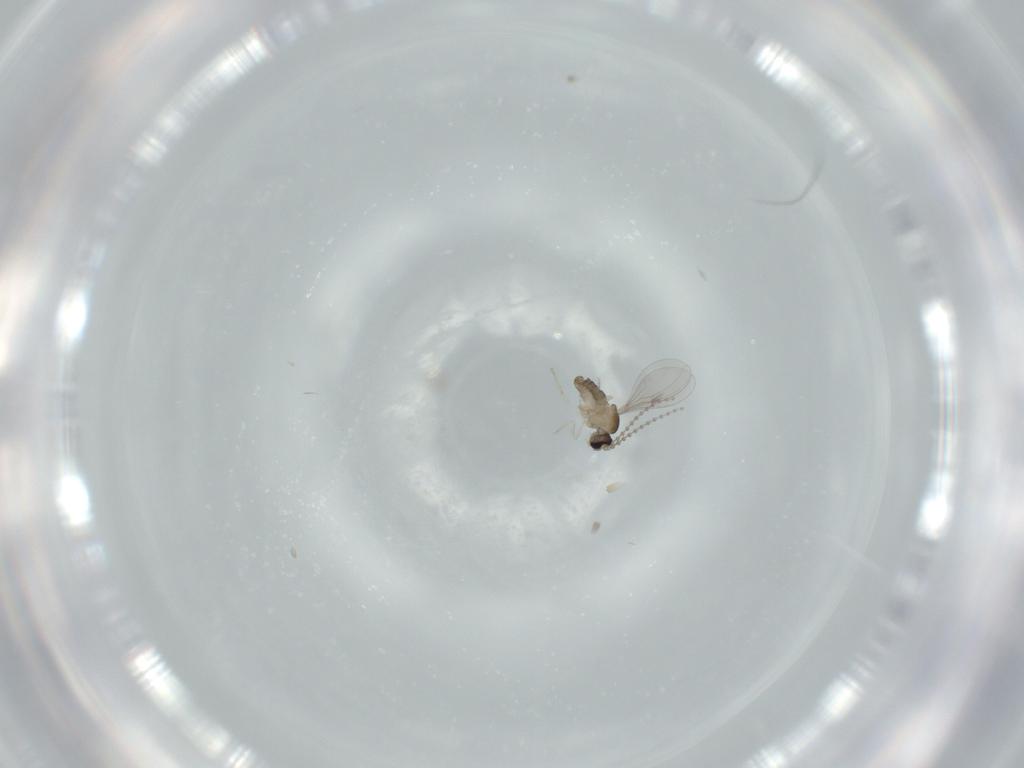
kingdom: Animalia
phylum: Arthropoda
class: Insecta
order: Diptera
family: Cecidomyiidae
